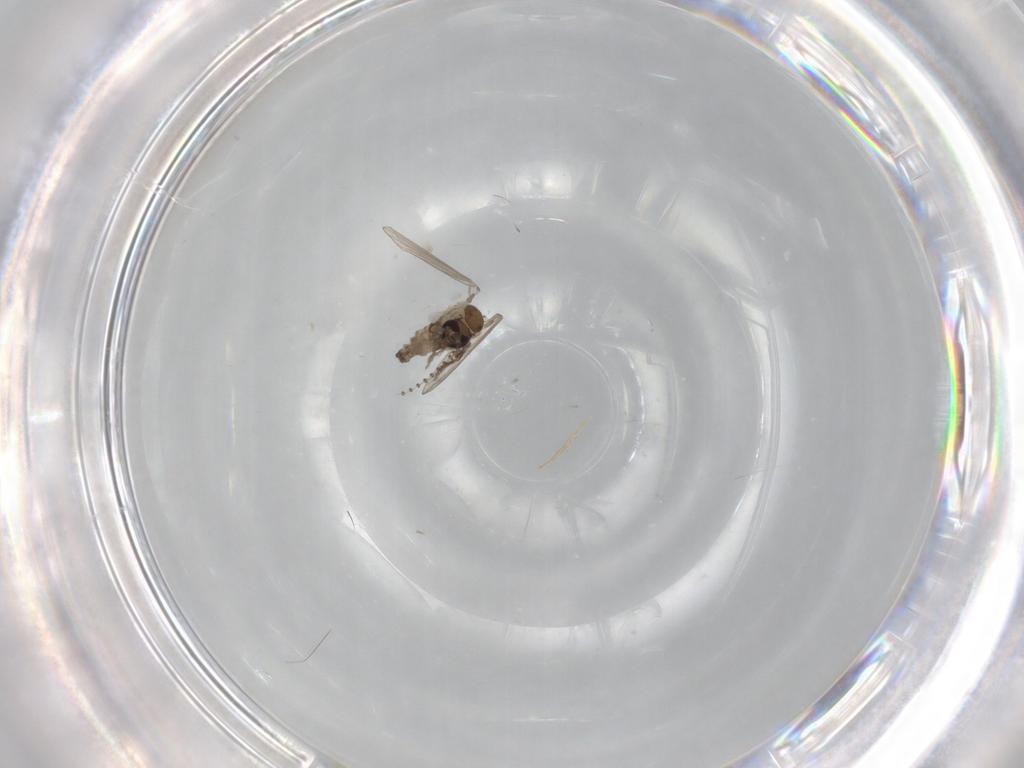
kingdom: Animalia
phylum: Arthropoda
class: Insecta
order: Diptera
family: Psychodidae
